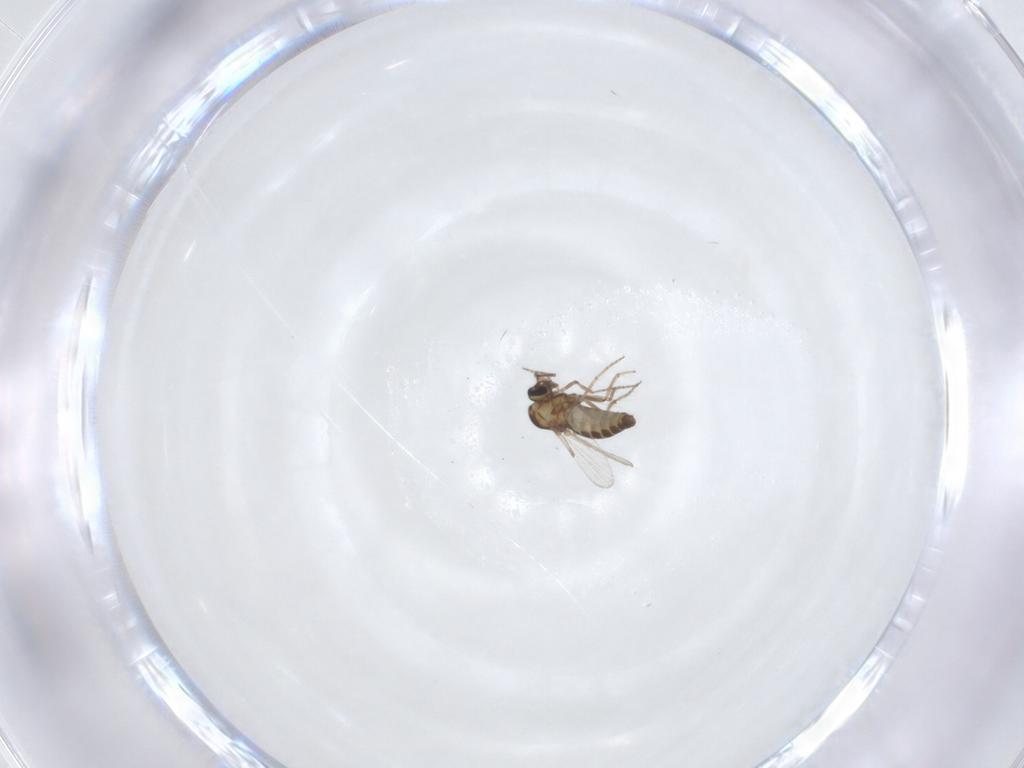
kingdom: Animalia
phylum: Arthropoda
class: Insecta
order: Diptera
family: Ceratopogonidae
